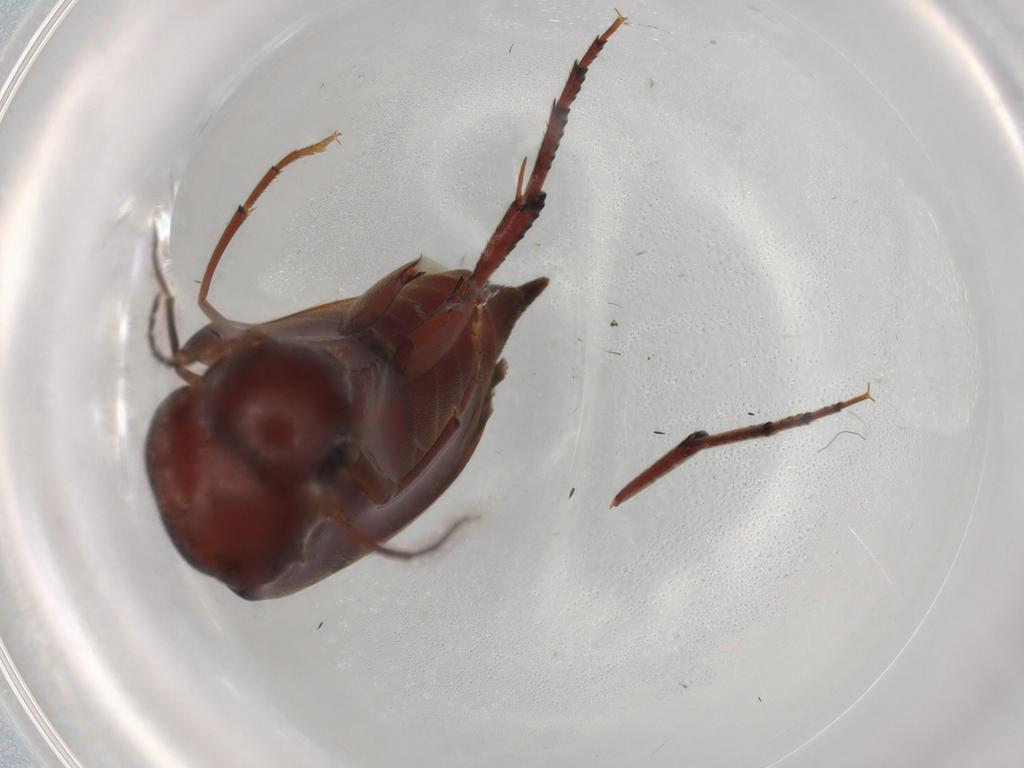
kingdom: Animalia
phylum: Arthropoda
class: Insecta
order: Coleoptera
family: Mordellidae
